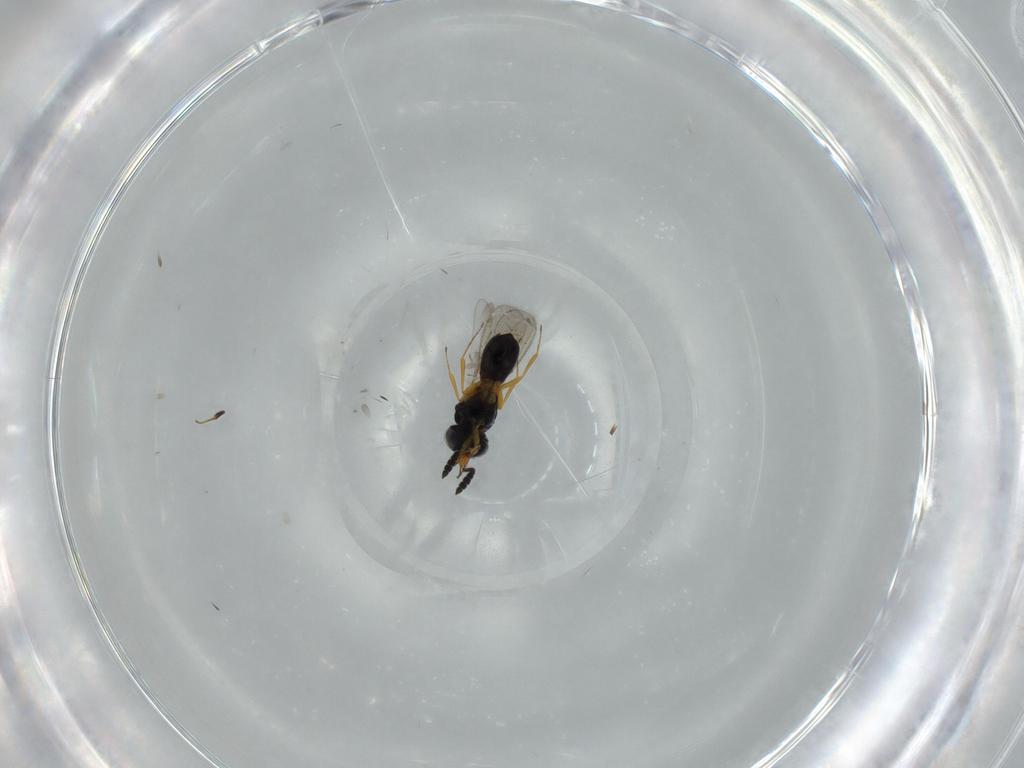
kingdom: Animalia
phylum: Arthropoda
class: Insecta
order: Hymenoptera
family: Scelionidae
